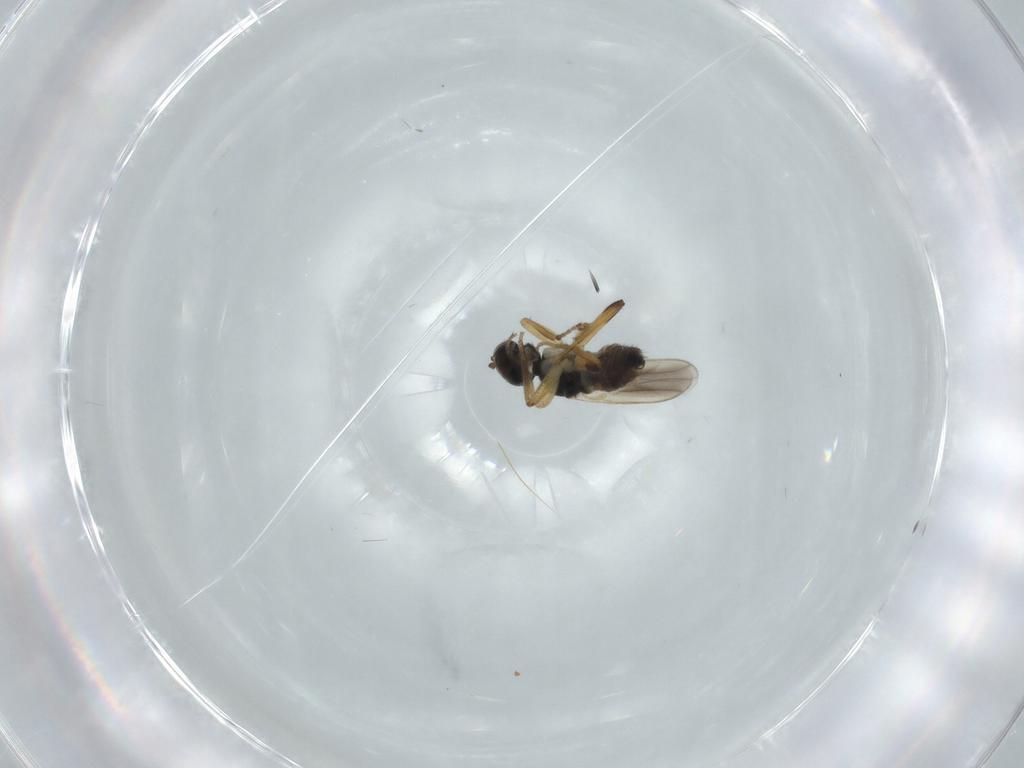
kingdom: Animalia
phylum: Arthropoda
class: Insecta
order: Diptera
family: Hybotidae
